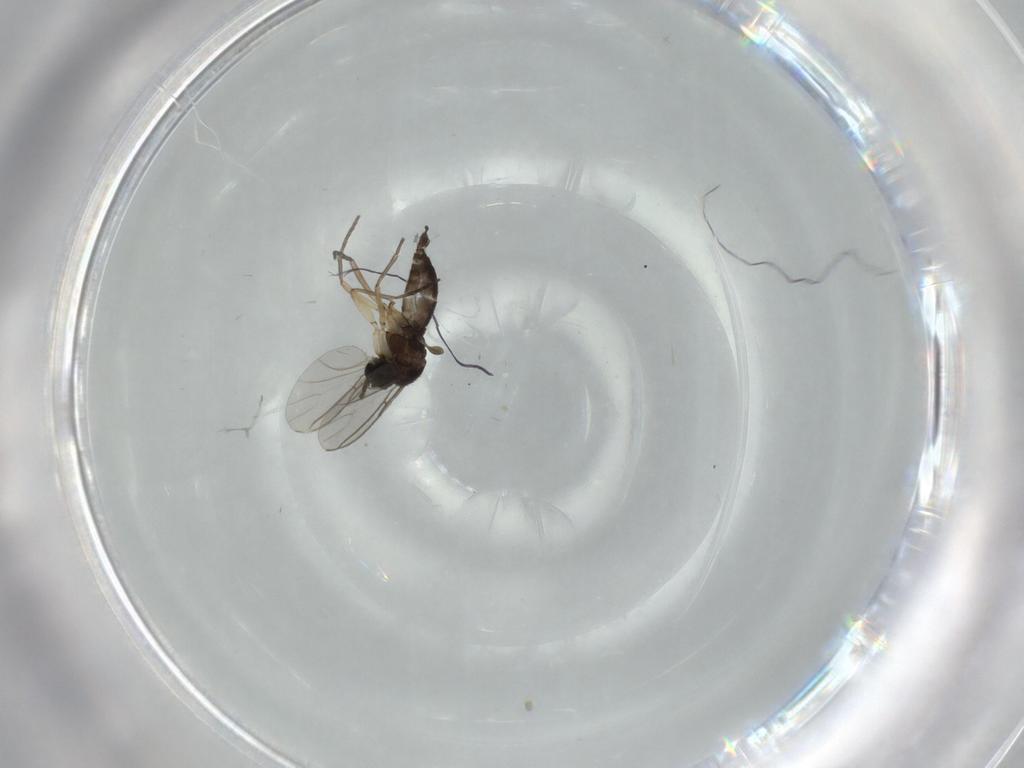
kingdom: Animalia
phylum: Arthropoda
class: Insecta
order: Diptera
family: Sciaridae
